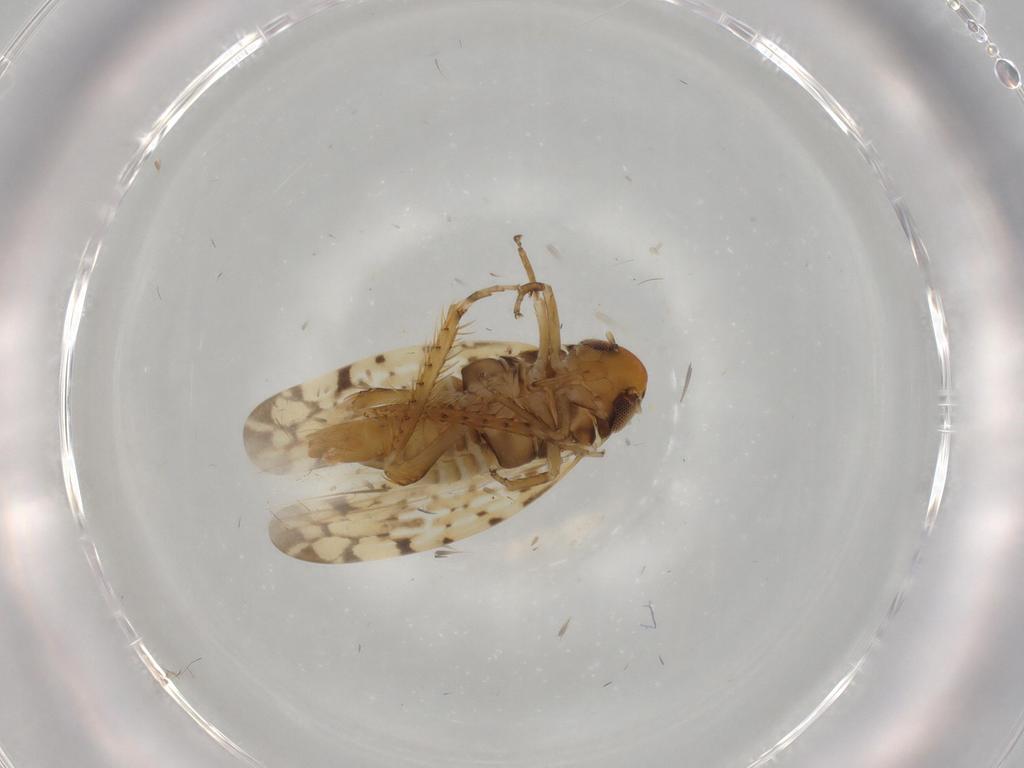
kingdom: Animalia
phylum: Arthropoda
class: Insecta
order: Hemiptera
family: Cicadellidae
